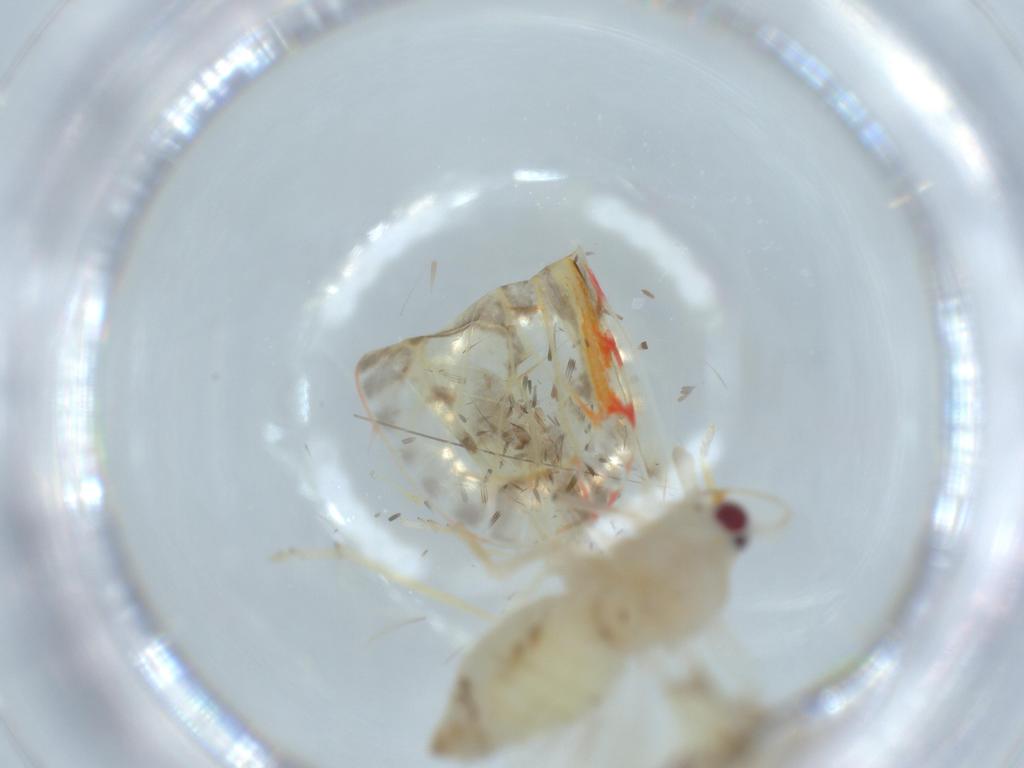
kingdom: Animalia
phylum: Arthropoda
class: Insecta
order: Hemiptera
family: Derbidae
